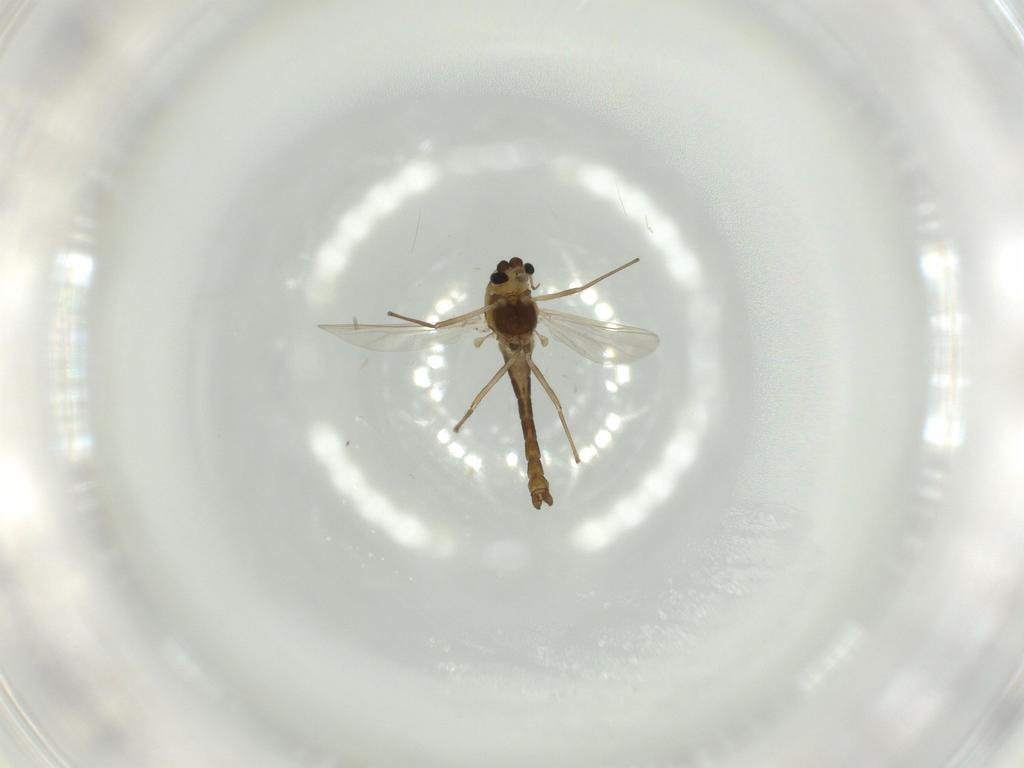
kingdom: Animalia
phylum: Arthropoda
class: Insecta
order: Diptera
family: Chironomidae
